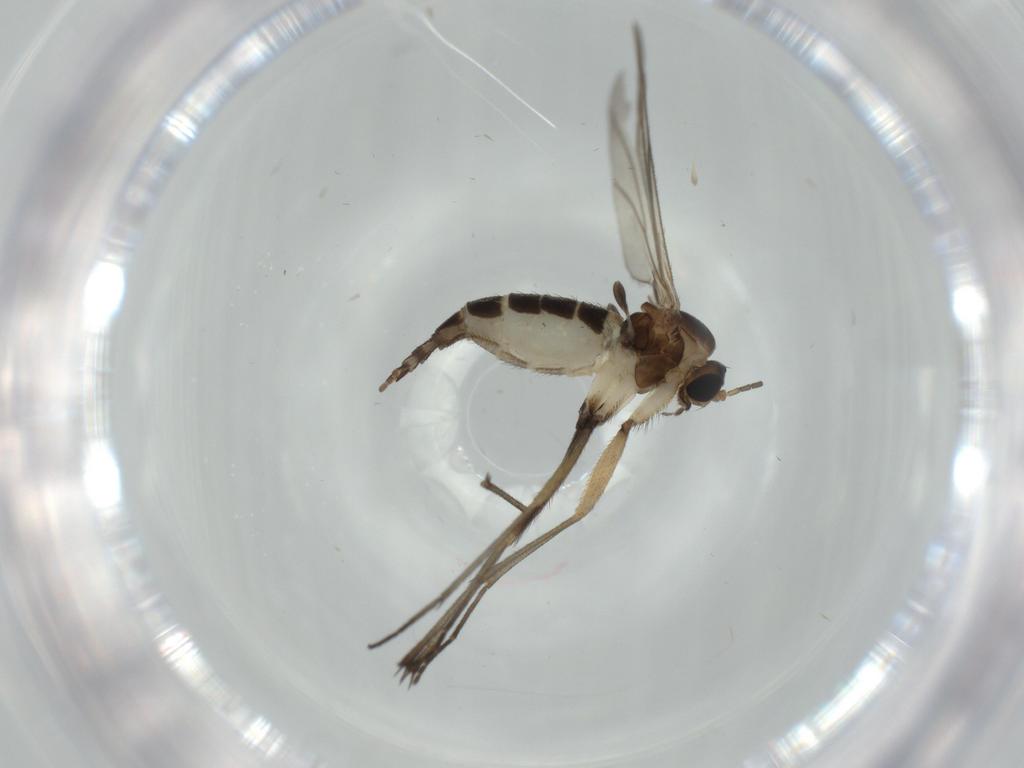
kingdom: Animalia
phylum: Arthropoda
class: Insecta
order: Diptera
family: Sciaridae
